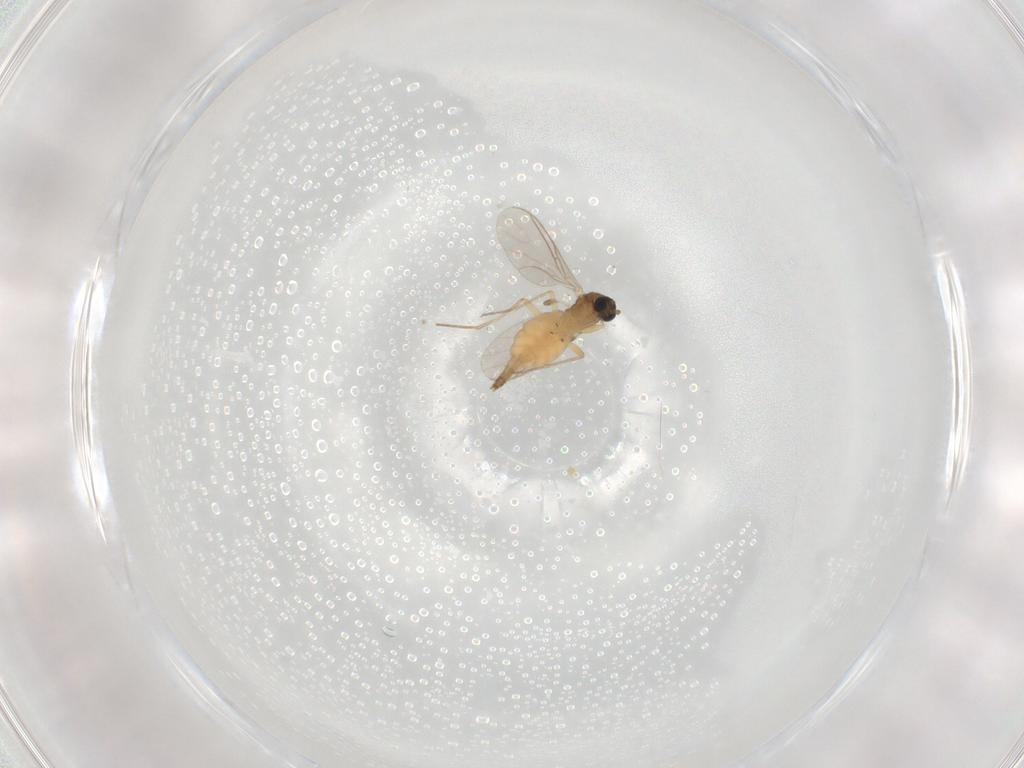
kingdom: Animalia
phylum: Arthropoda
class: Insecta
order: Diptera
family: Sciaridae
